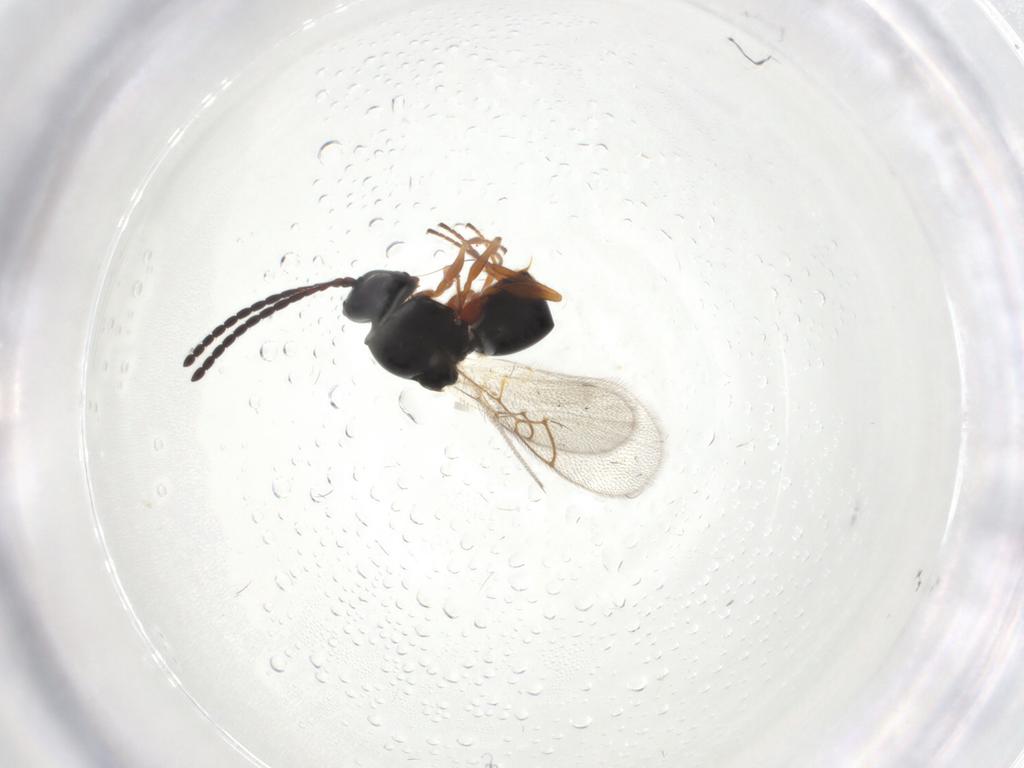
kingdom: Animalia
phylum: Arthropoda
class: Insecta
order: Hymenoptera
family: Figitidae
